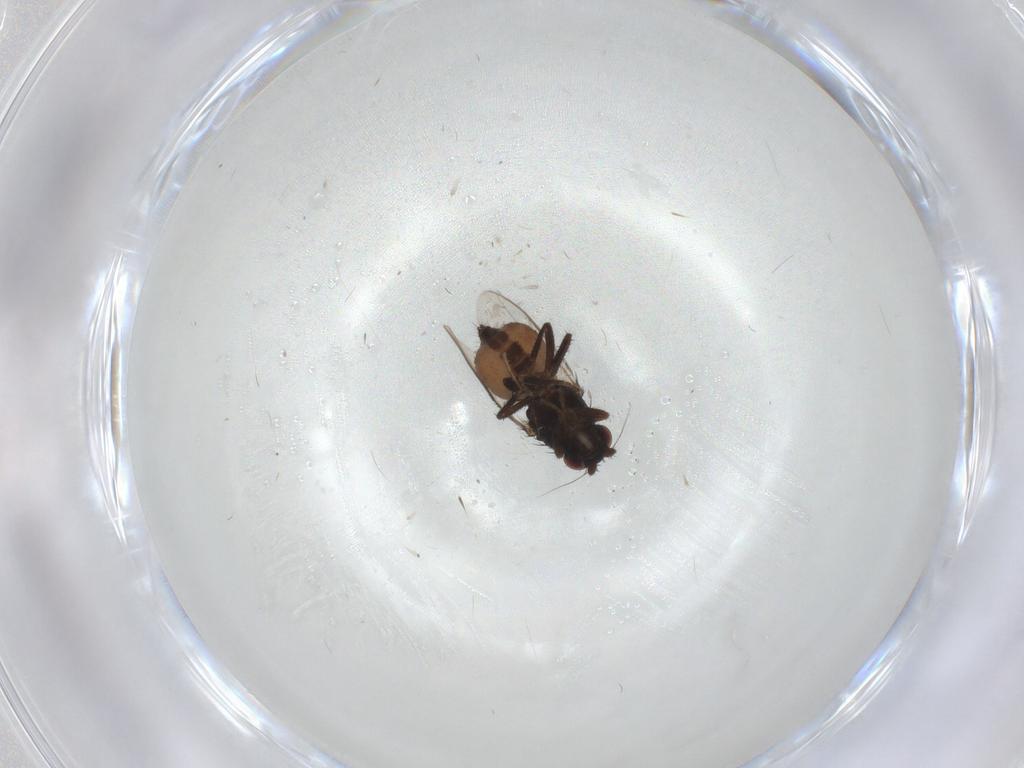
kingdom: Animalia
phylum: Arthropoda
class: Insecta
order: Diptera
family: Sphaeroceridae
